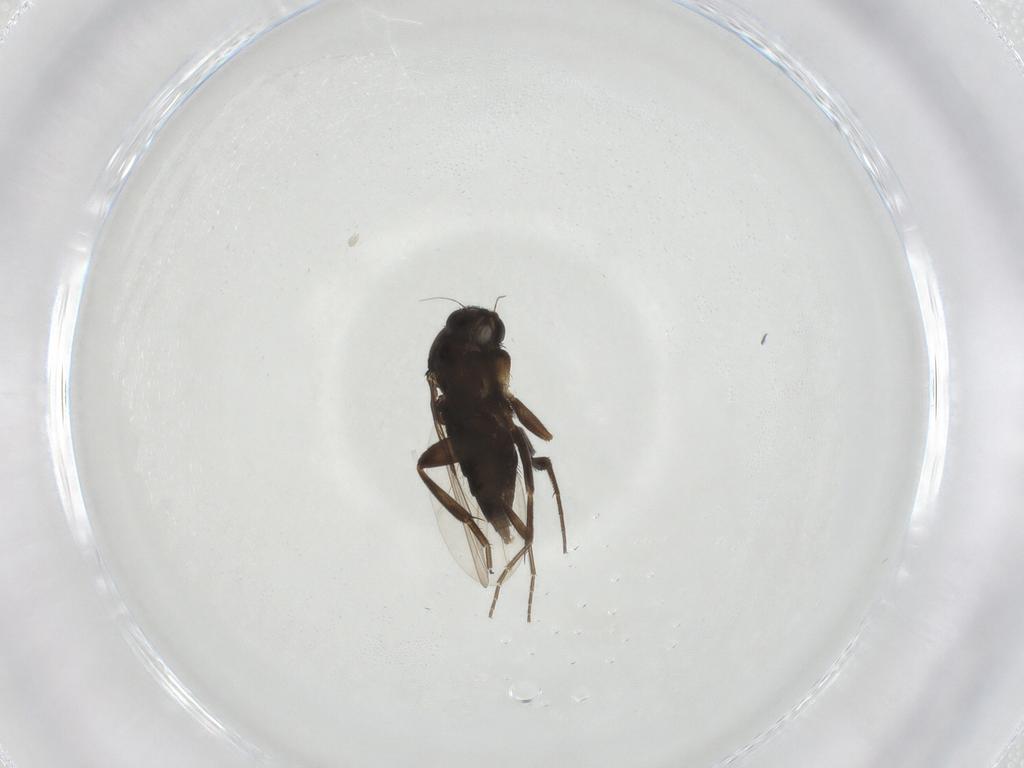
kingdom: Animalia
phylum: Arthropoda
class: Insecta
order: Diptera
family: Phoridae
